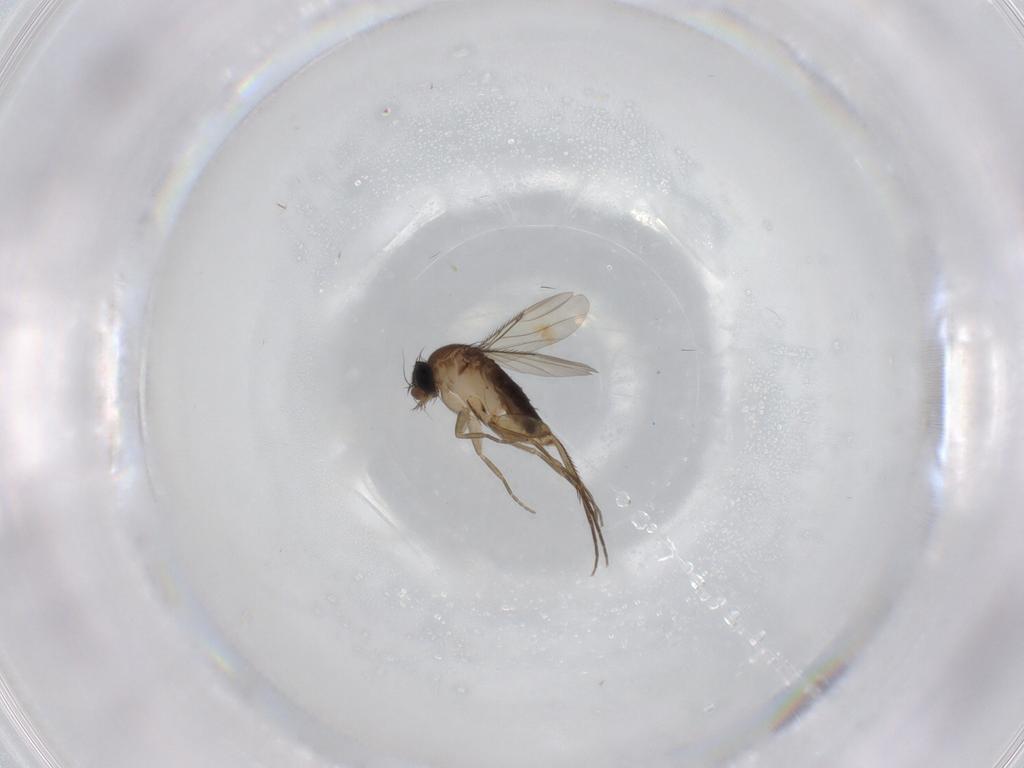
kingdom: Animalia
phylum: Arthropoda
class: Insecta
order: Diptera
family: Phoridae
